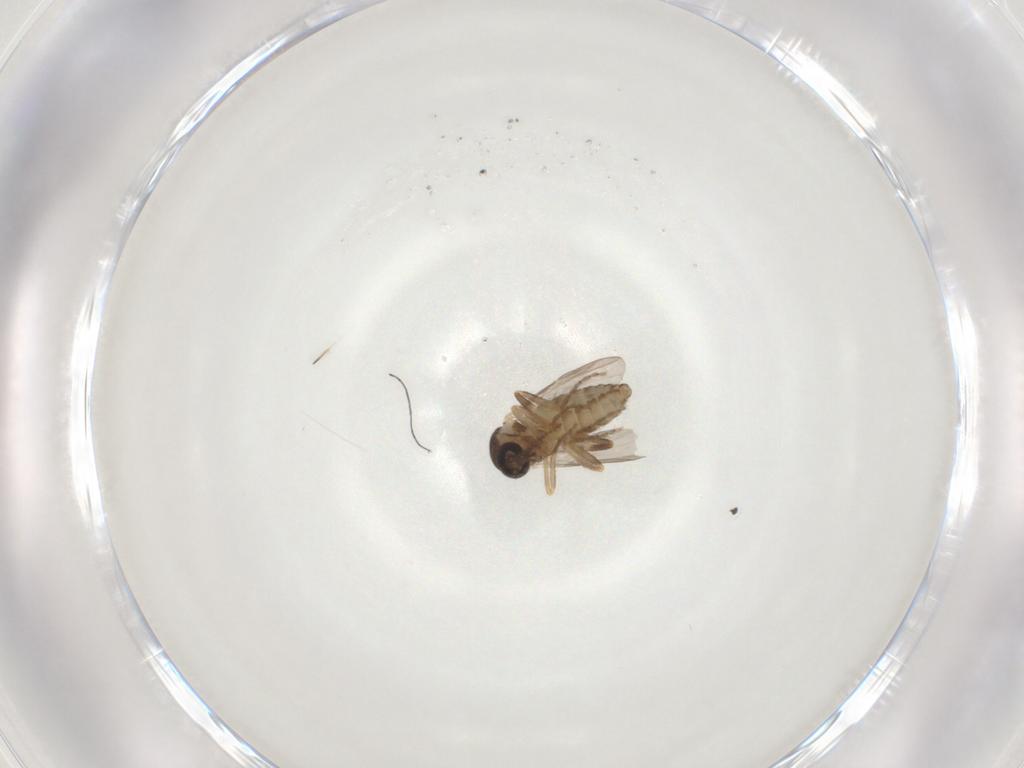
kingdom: Animalia
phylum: Arthropoda
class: Insecta
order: Diptera
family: Ceratopogonidae
